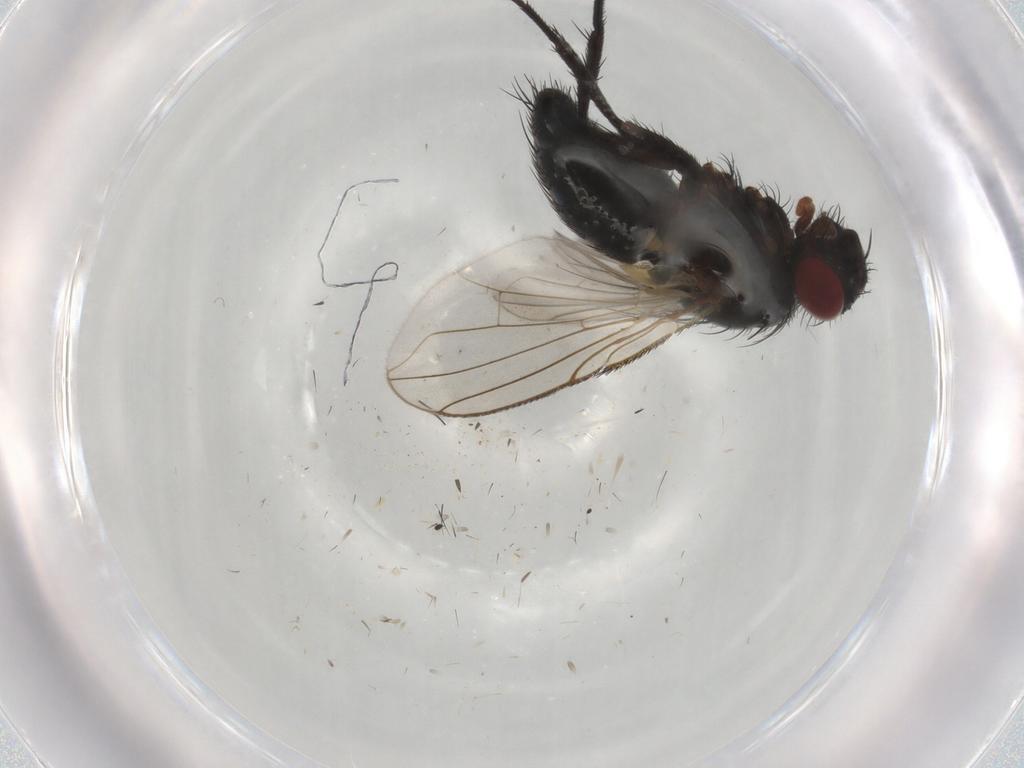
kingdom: Animalia
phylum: Arthropoda
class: Insecta
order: Diptera
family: Tachinidae
